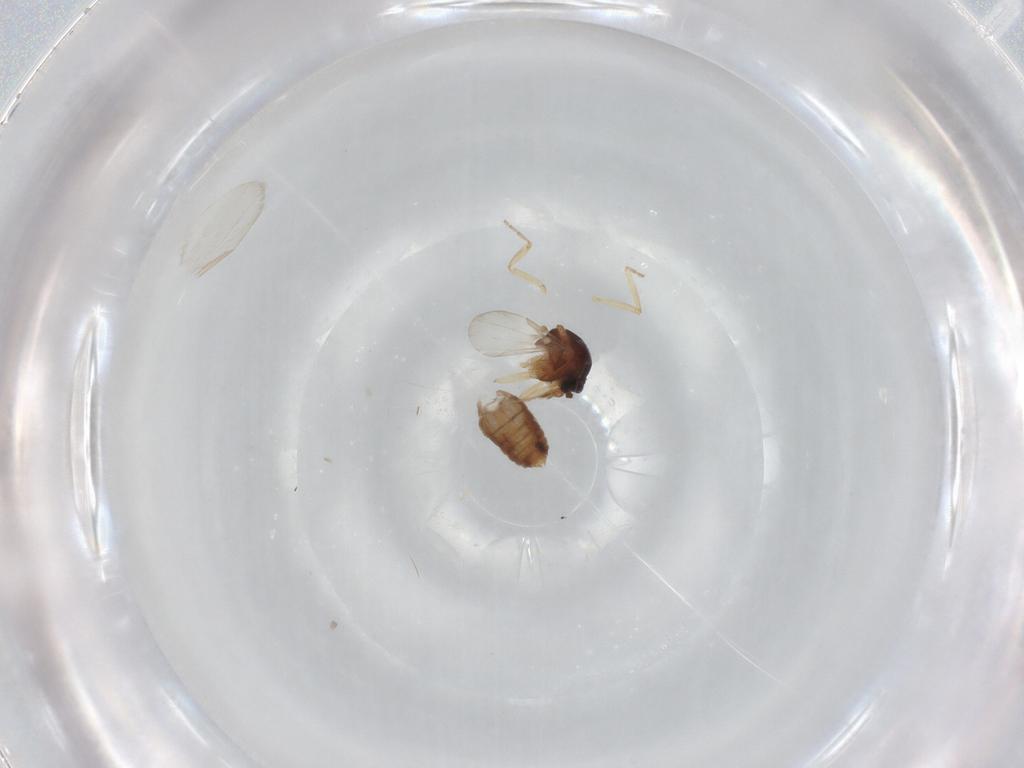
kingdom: Animalia
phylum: Arthropoda
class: Insecta
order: Diptera
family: Ceratopogonidae
